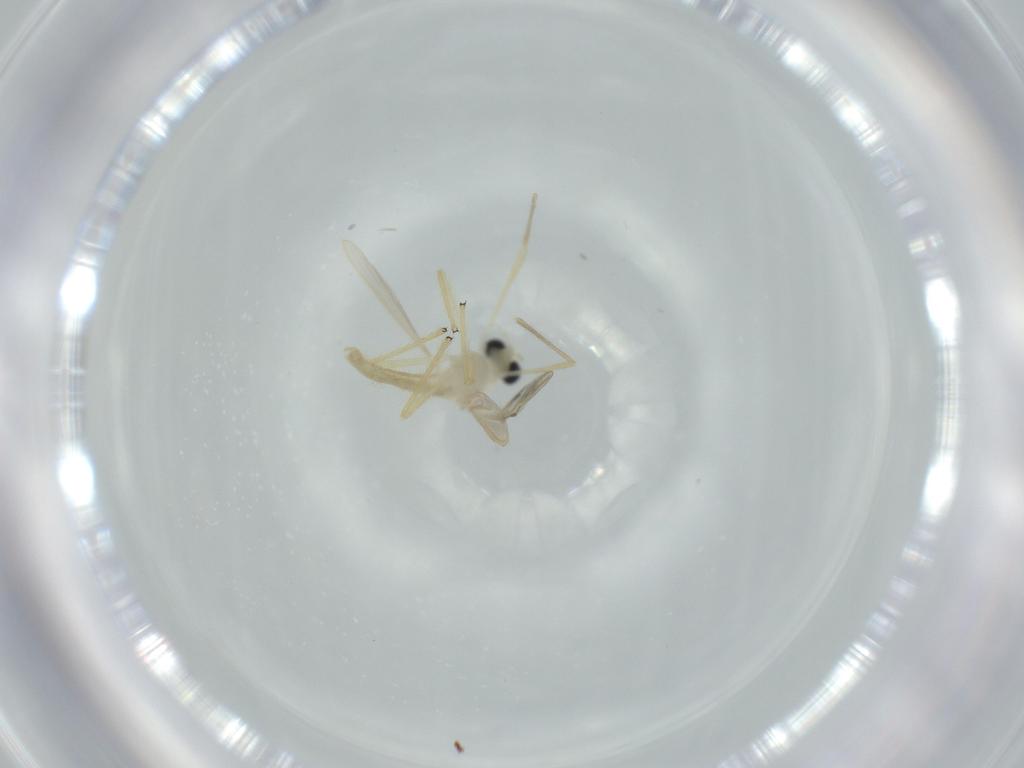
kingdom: Animalia
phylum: Arthropoda
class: Insecta
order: Diptera
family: Chironomidae
